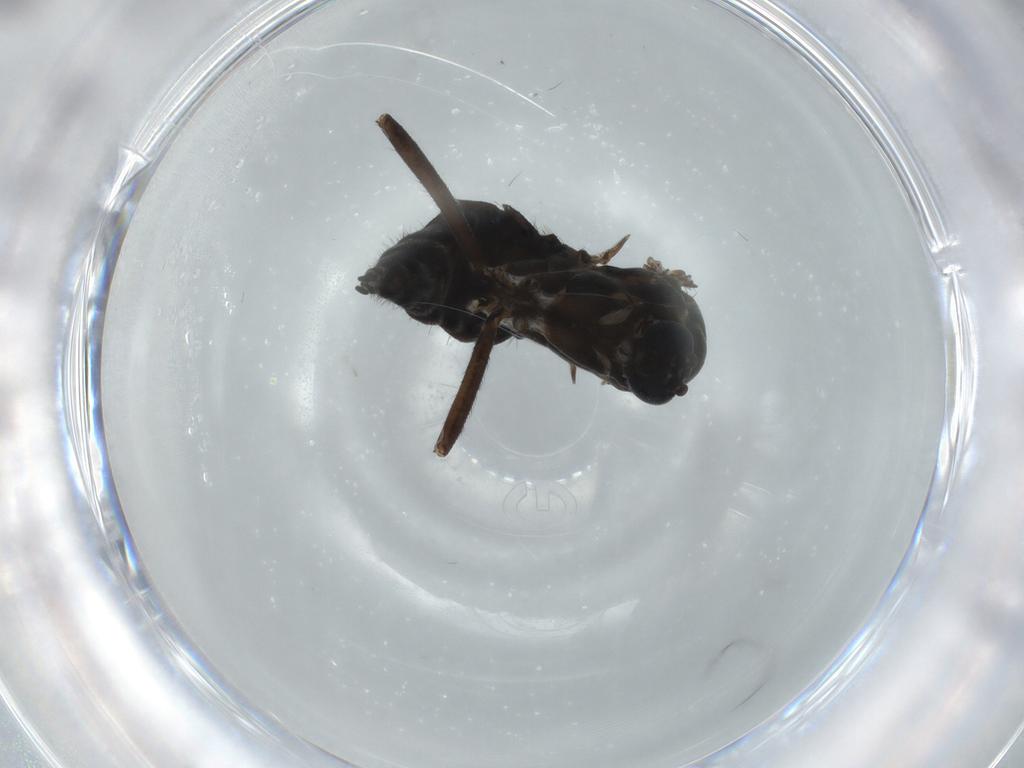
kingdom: Animalia
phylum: Arthropoda
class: Insecta
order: Diptera
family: Sciaridae
